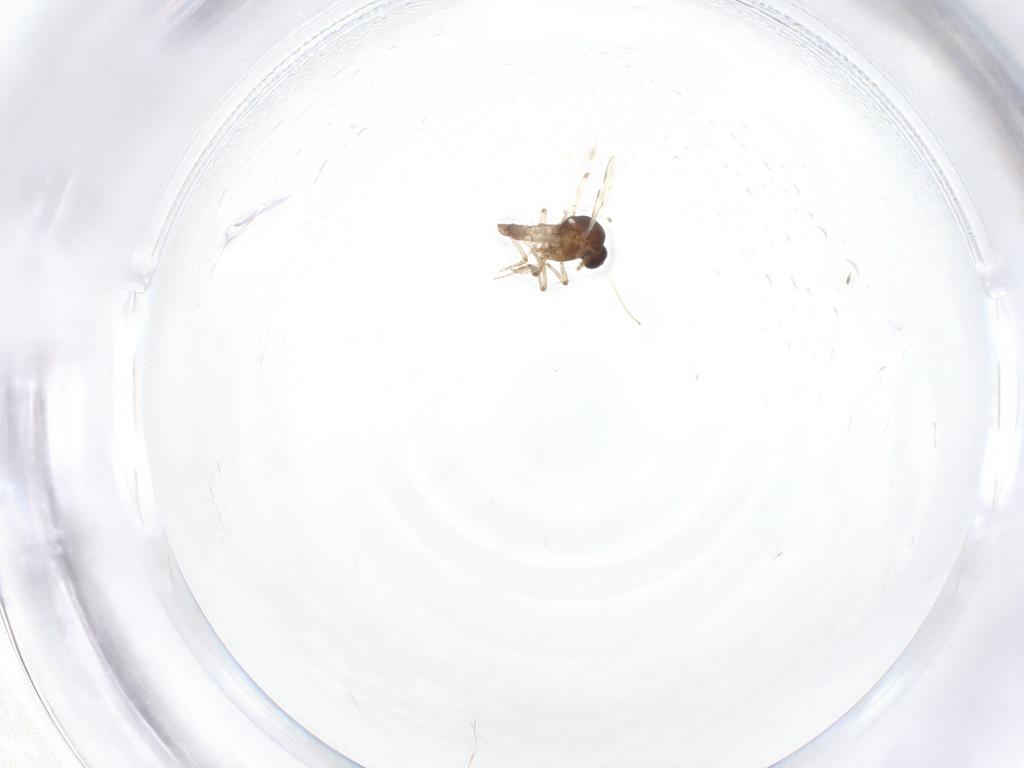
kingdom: Animalia
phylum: Arthropoda
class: Insecta
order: Diptera
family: Ceratopogonidae
